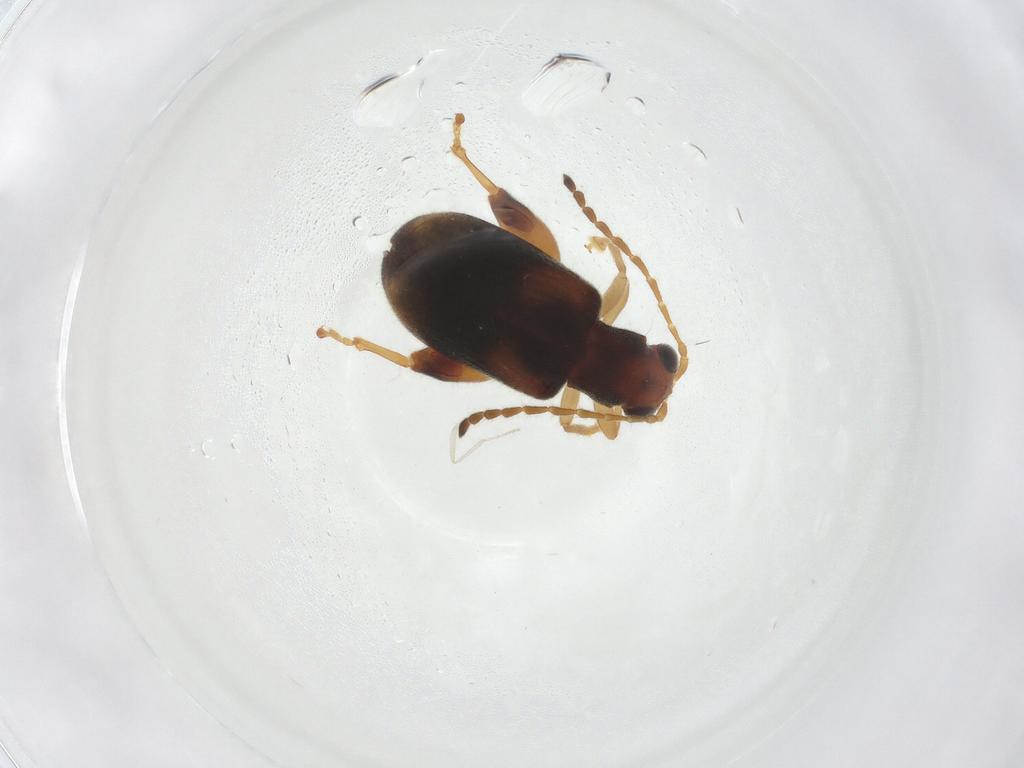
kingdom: Animalia
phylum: Arthropoda
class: Insecta
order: Coleoptera
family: Chrysomelidae
